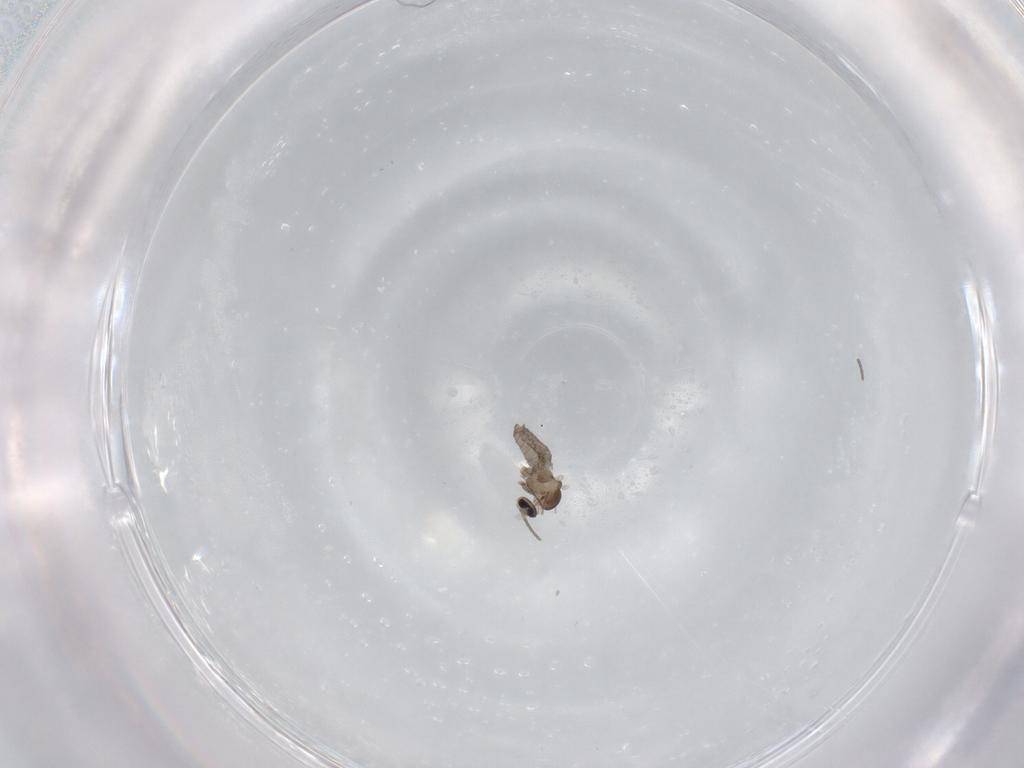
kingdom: Animalia
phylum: Arthropoda
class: Insecta
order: Diptera
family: Cecidomyiidae
